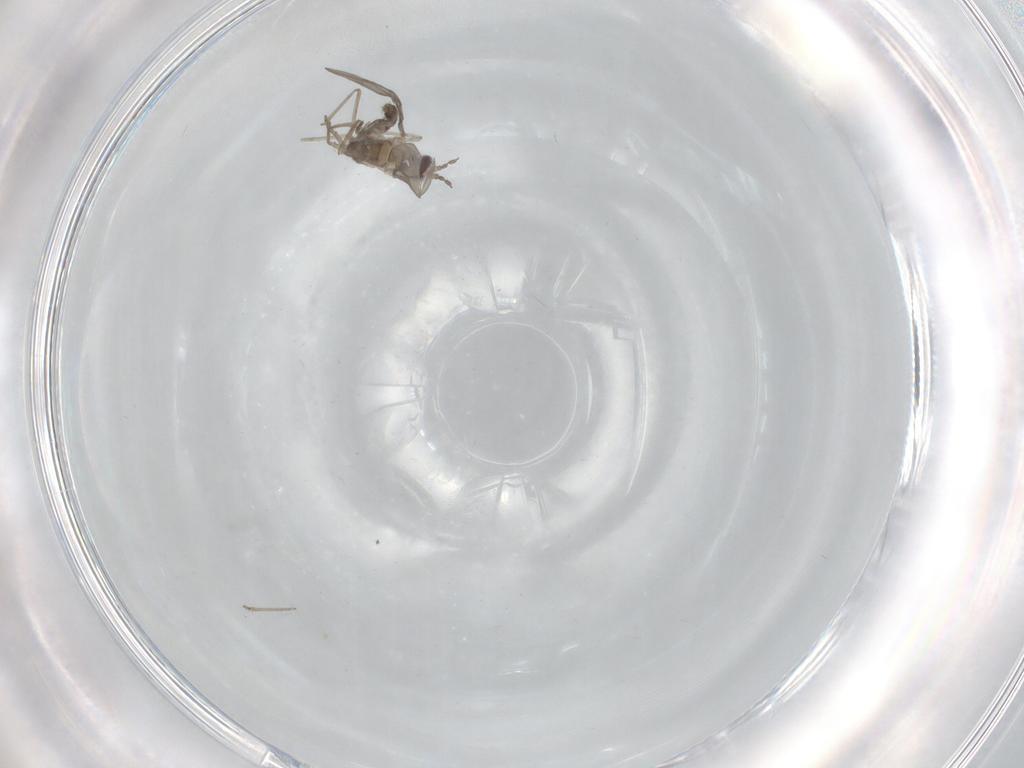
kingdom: Animalia
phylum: Arthropoda
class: Insecta
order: Diptera
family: Cecidomyiidae
